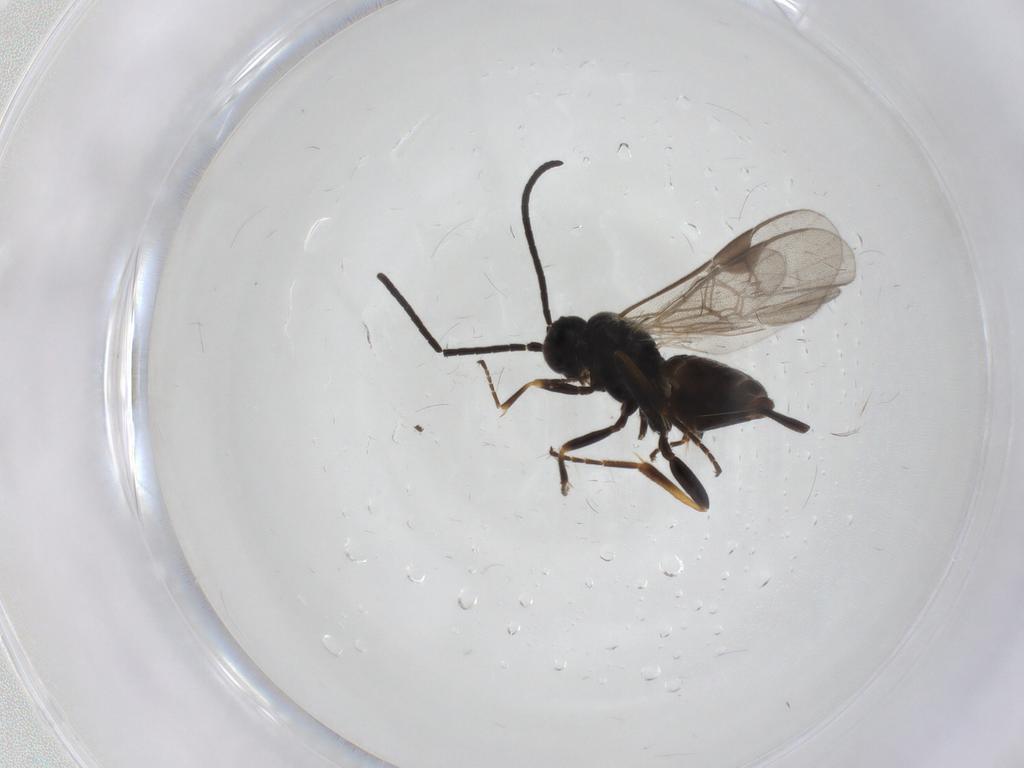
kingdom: Animalia
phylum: Arthropoda
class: Insecta
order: Hymenoptera
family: Braconidae
